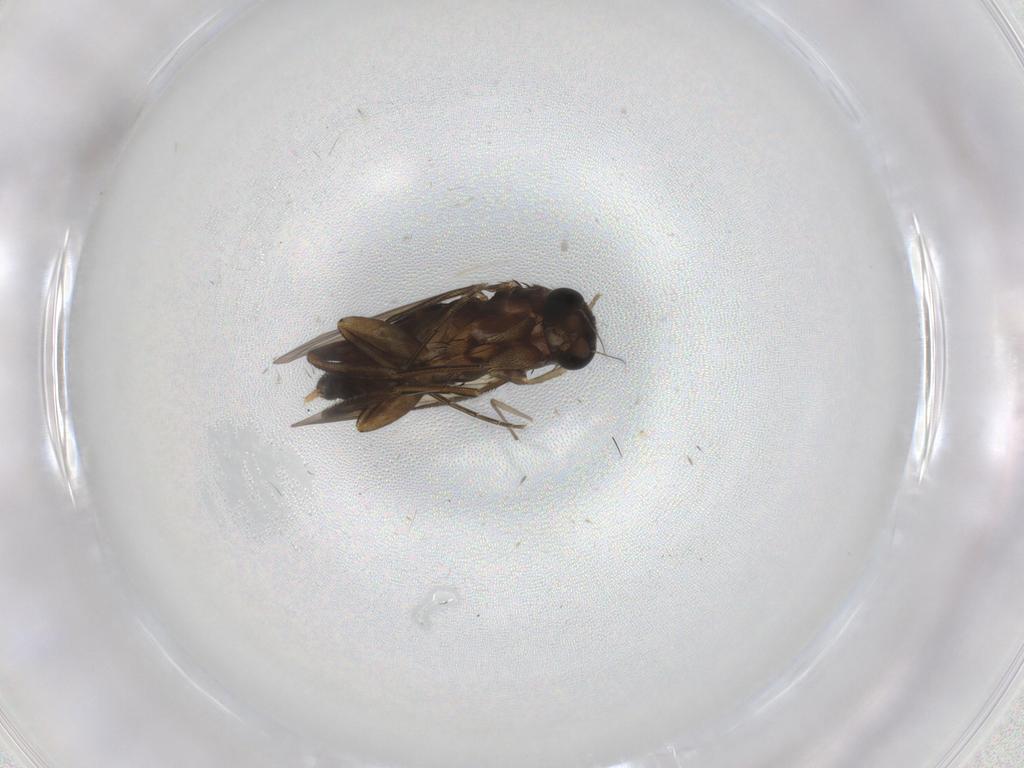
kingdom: Animalia
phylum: Arthropoda
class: Insecta
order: Diptera
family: Phoridae
